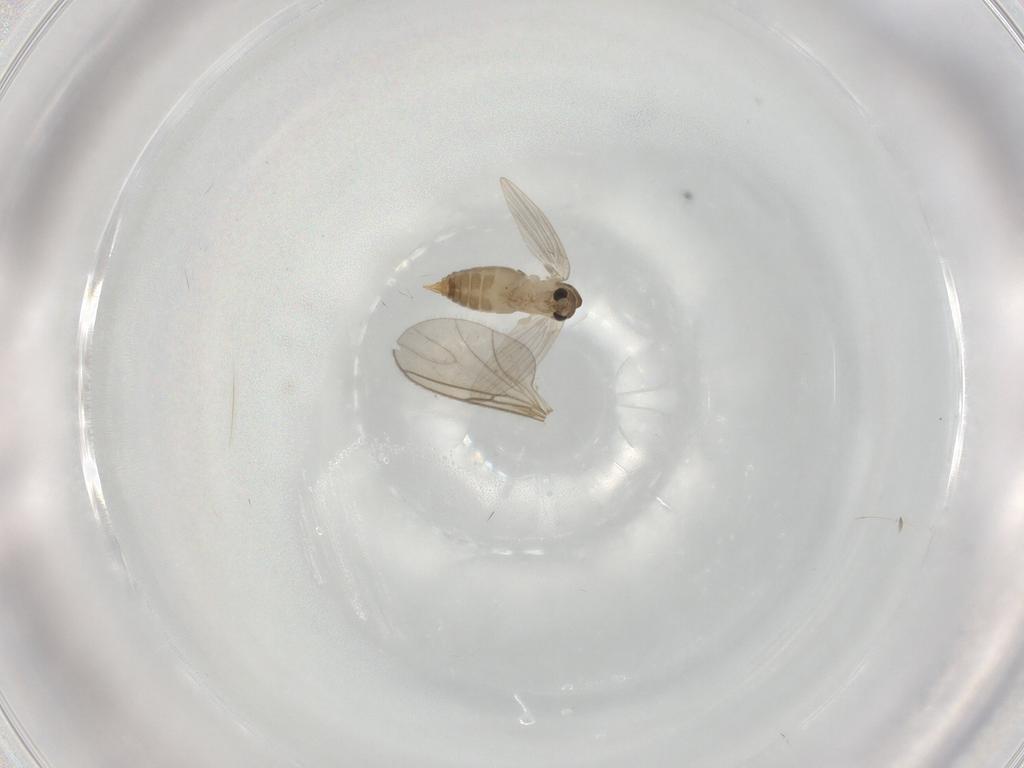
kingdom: Animalia
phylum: Arthropoda
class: Insecta
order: Diptera
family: Psychodidae
